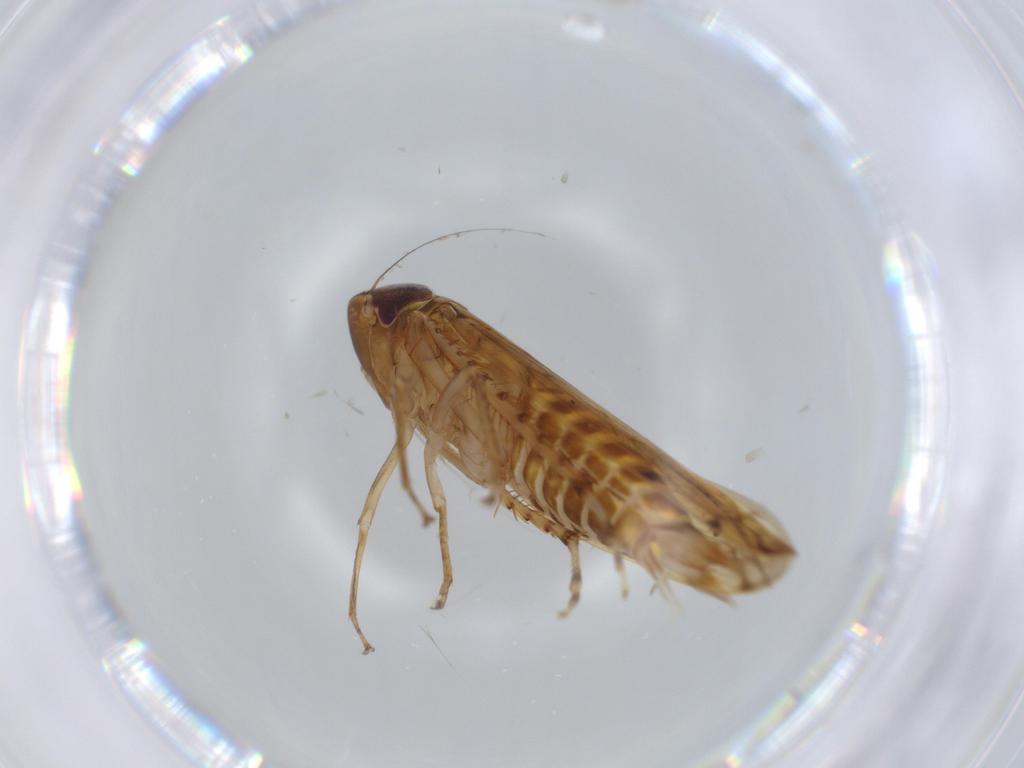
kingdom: Animalia
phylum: Arthropoda
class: Insecta
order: Hemiptera
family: Cicadellidae
